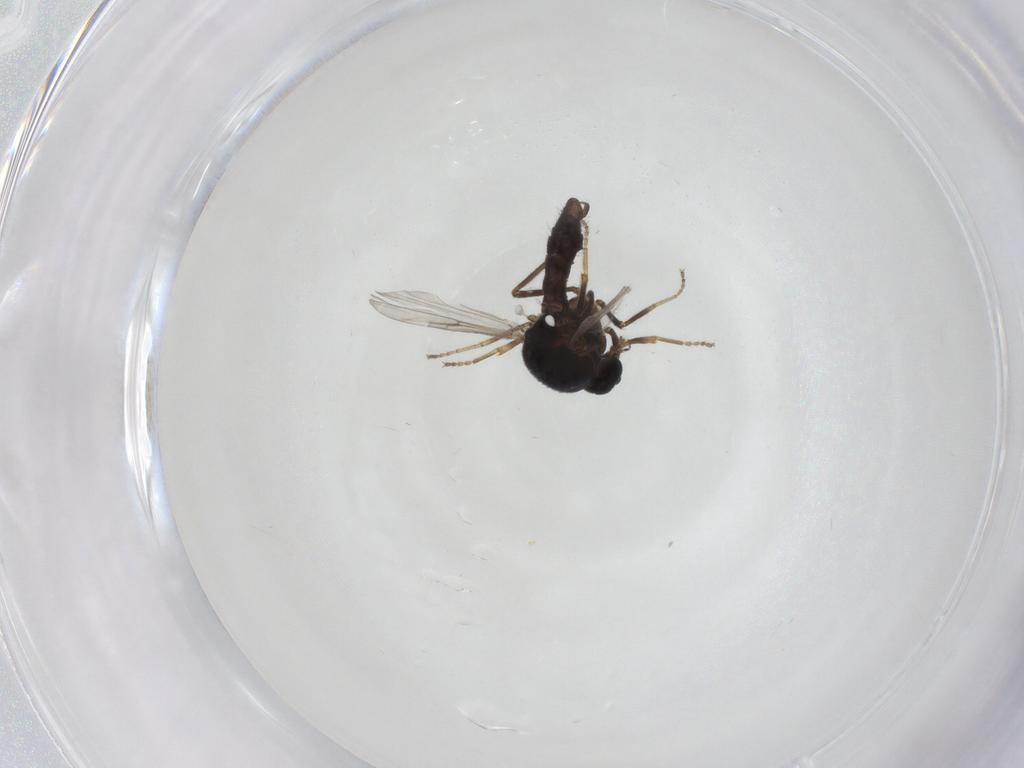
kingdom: Animalia
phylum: Arthropoda
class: Insecta
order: Diptera
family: Ceratopogonidae
